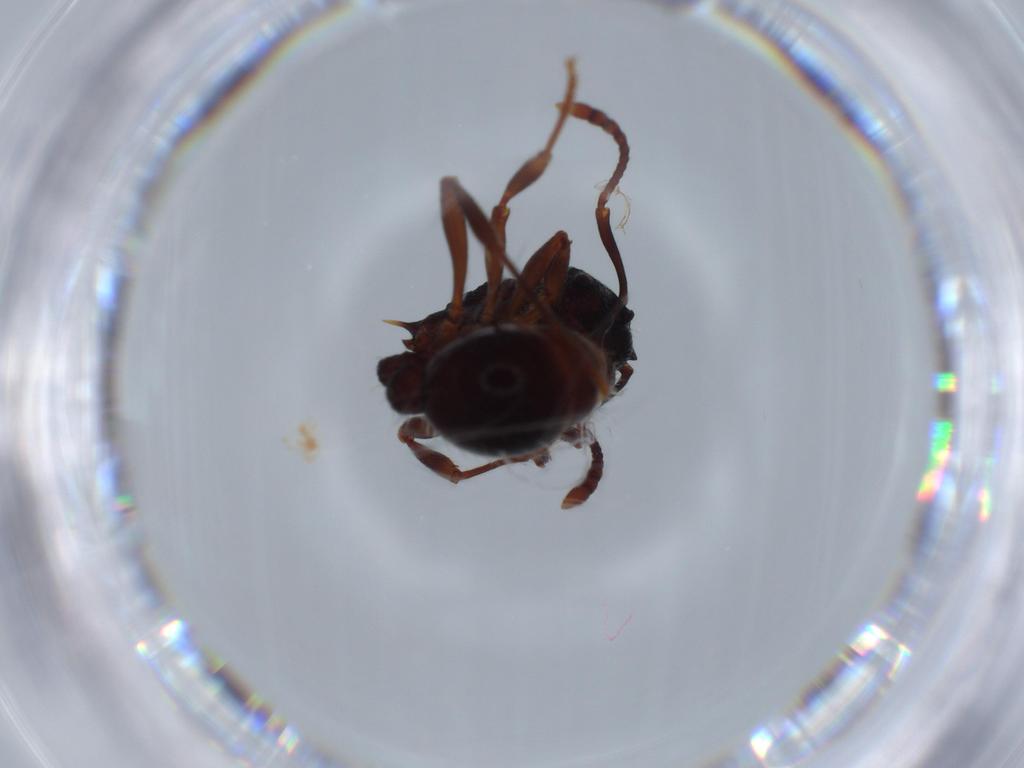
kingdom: Animalia
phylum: Arthropoda
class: Insecta
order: Hymenoptera
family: Formicidae
